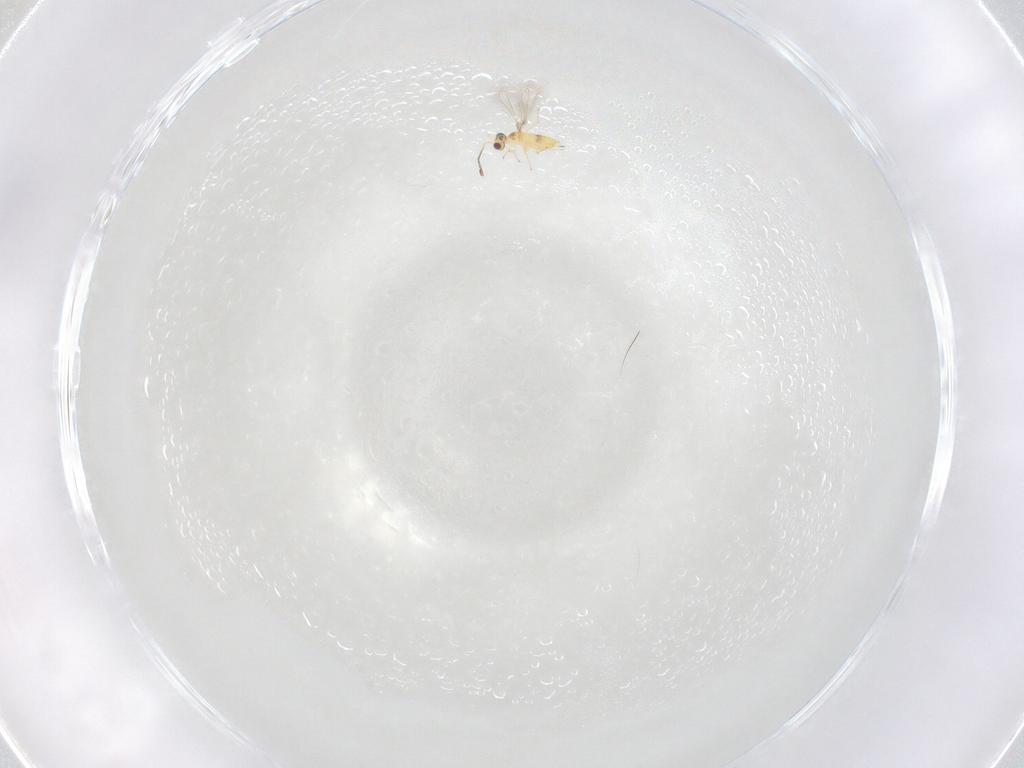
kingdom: Animalia
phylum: Arthropoda
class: Insecta
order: Hymenoptera
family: Mymaridae
